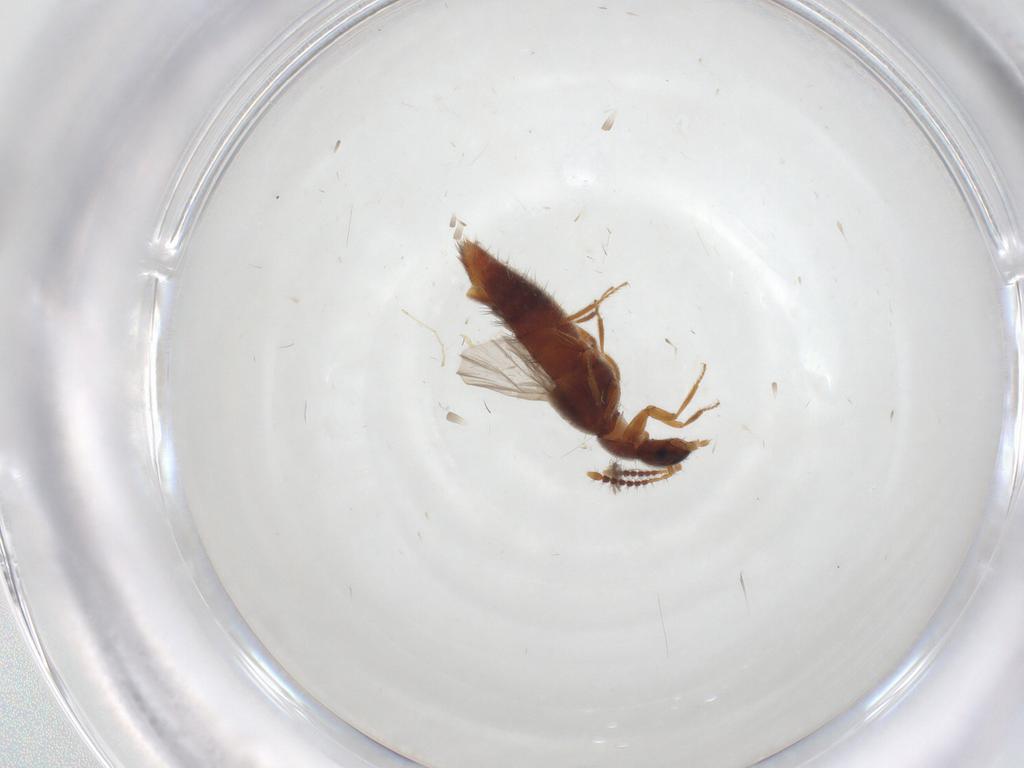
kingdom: Animalia
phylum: Arthropoda
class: Insecta
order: Coleoptera
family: Staphylinidae
